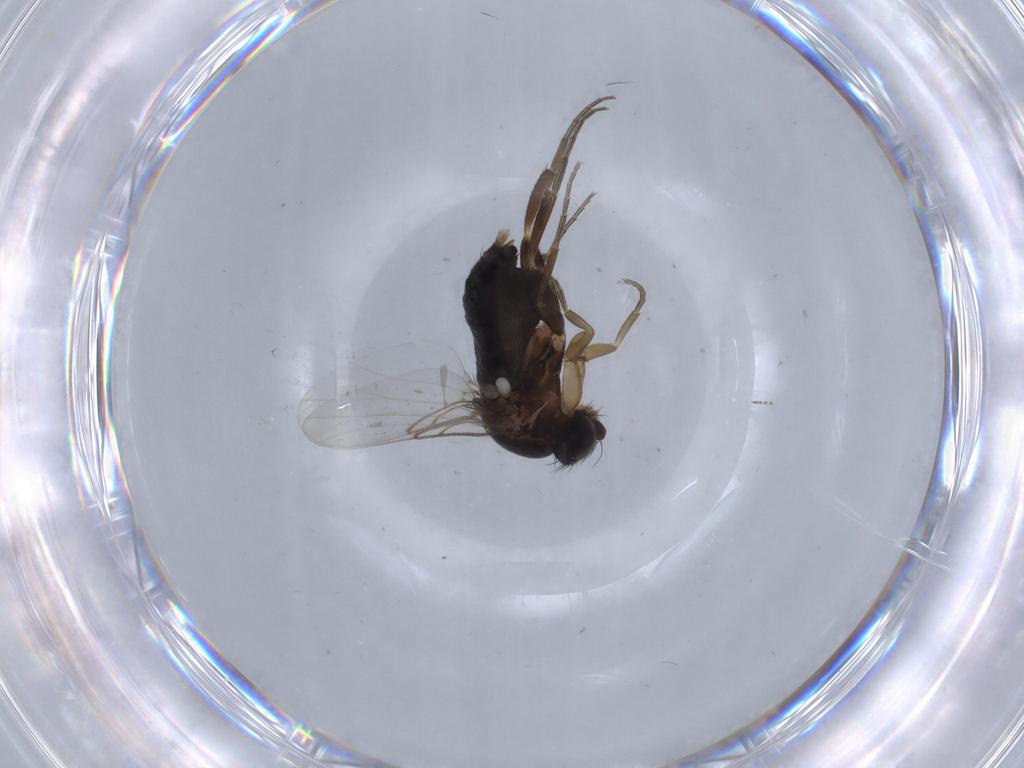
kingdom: Animalia
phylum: Arthropoda
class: Insecta
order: Diptera
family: Phoridae
